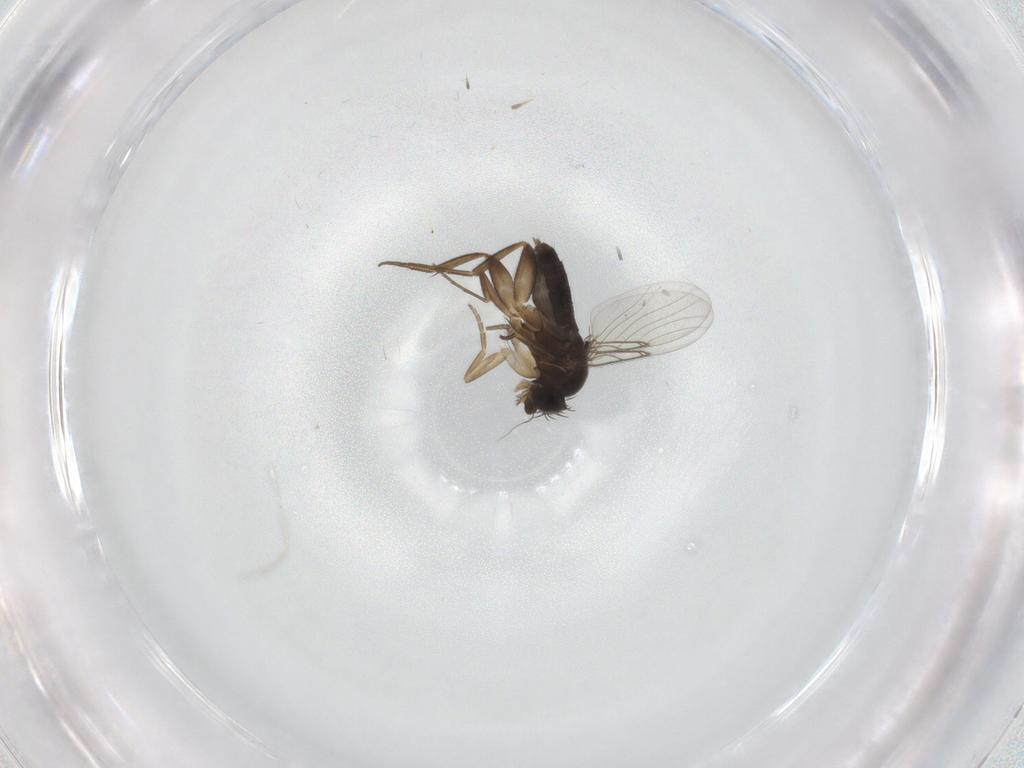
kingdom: Animalia
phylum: Arthropoda
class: Insecta
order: Diptera
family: Phoridae
